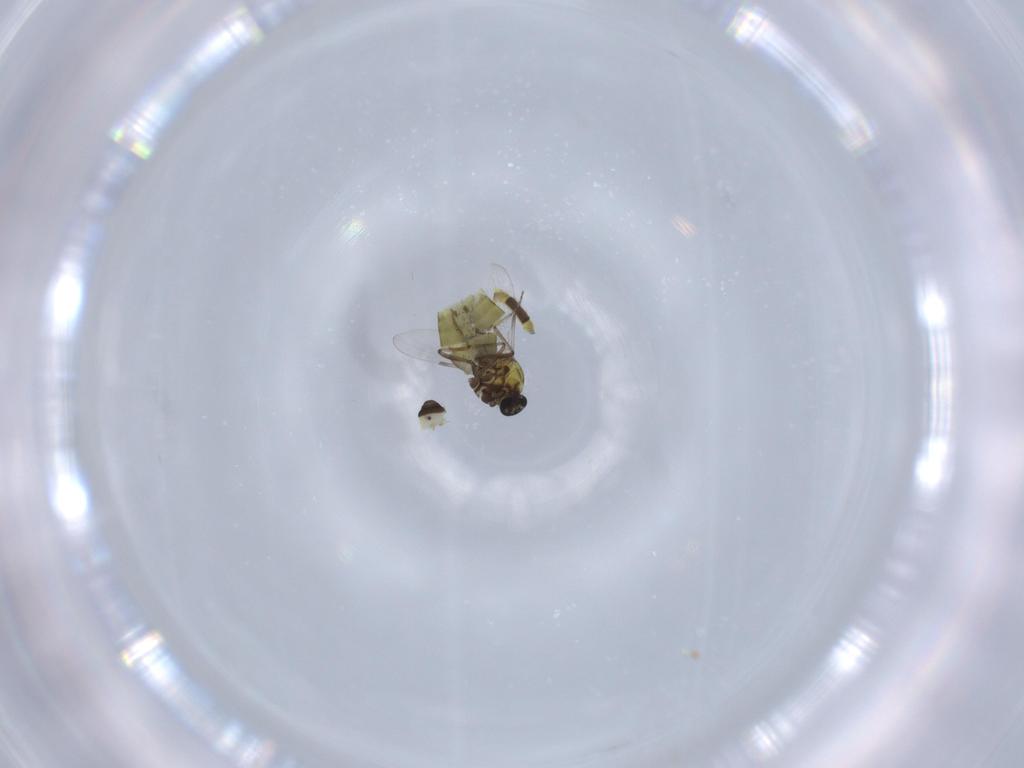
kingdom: Animalia
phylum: Arthropoda
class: Insecta
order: Diptera
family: Ceratopogonidae
